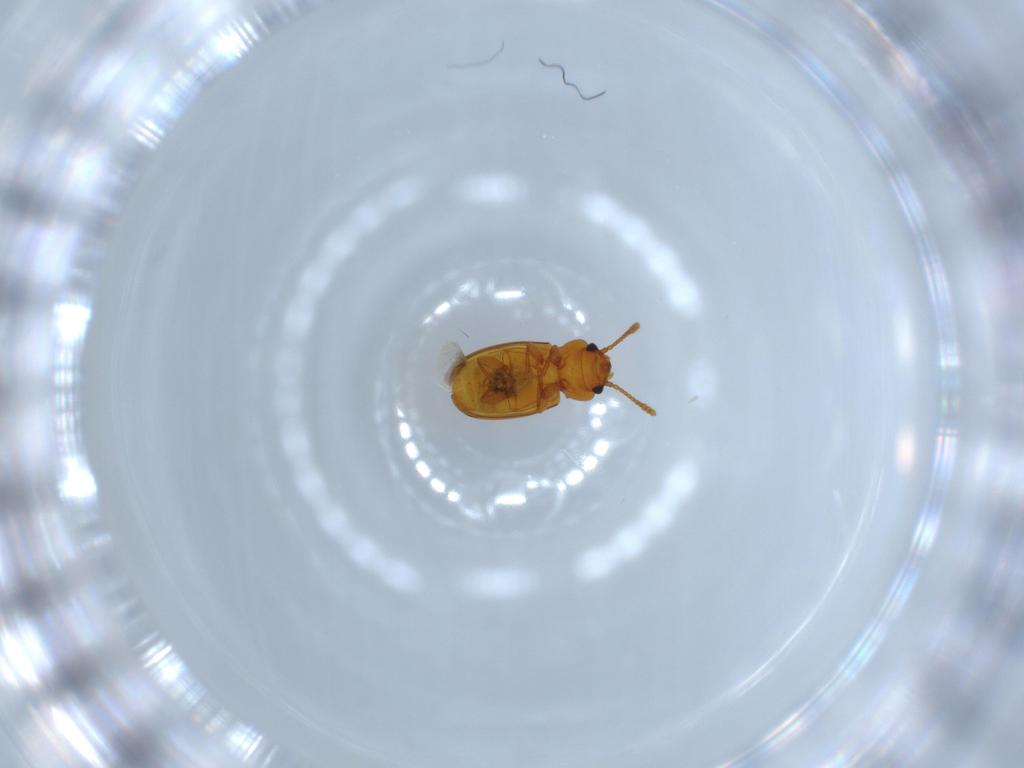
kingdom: Animalia
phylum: Arthropoda
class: Insecta
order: Coleoptera
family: Laemophloeidae
